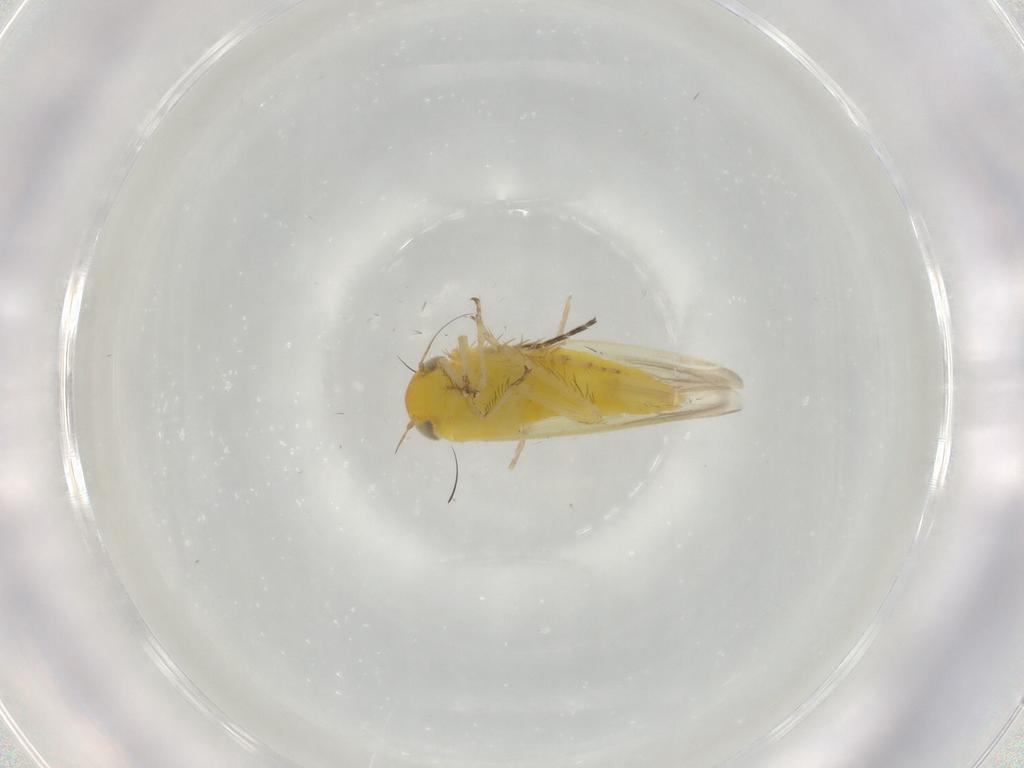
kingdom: Animalia
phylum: Arthropoda
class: Insecta
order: Hemiptera
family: Cicadellidae
